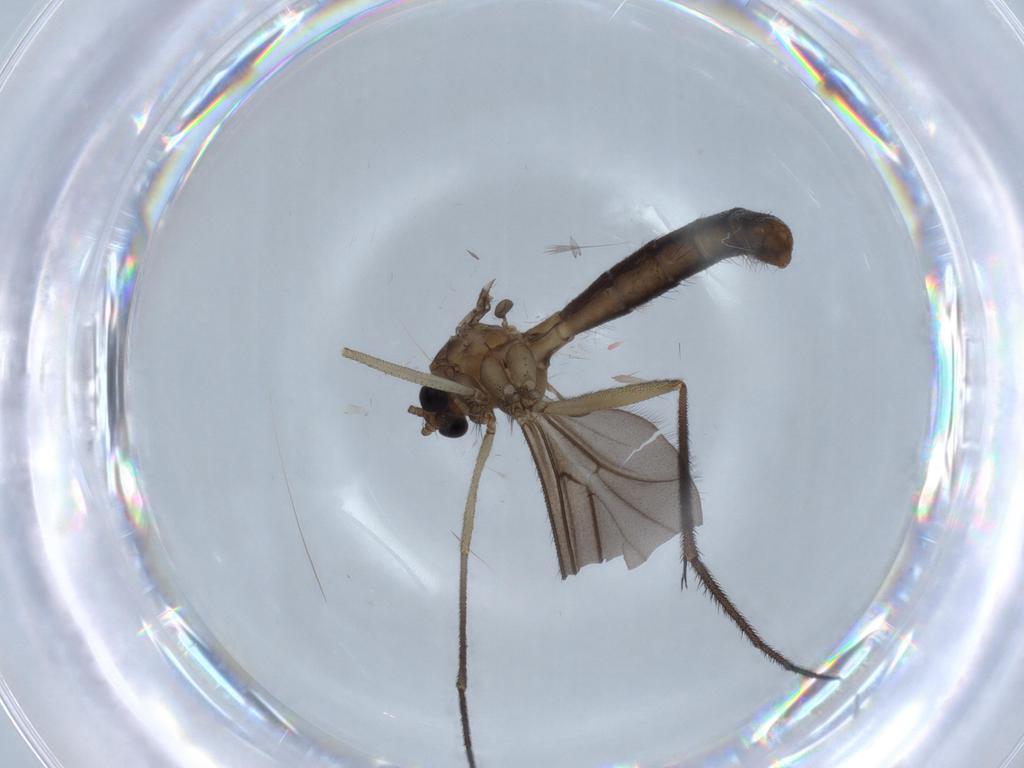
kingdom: Animalia
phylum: Arthropoda
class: Insecta
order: Diptera
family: Ditomyiidae
